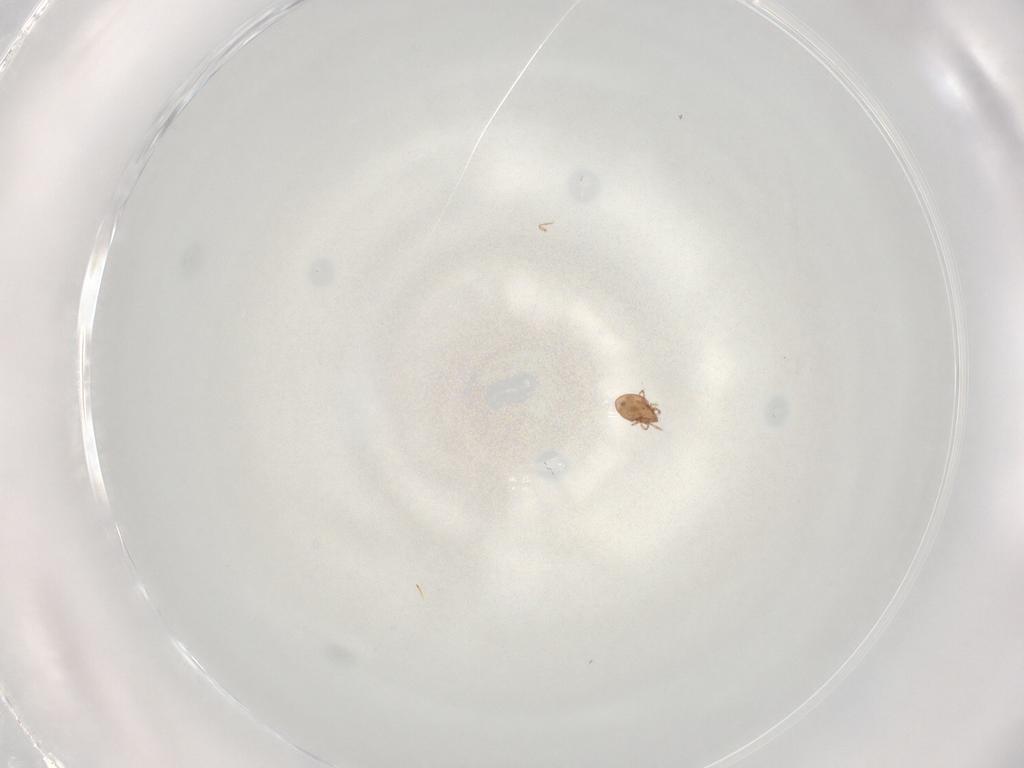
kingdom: Animalia
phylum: Arthropoda
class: Arachnida
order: Sarcoptiformes
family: Oribatulidae
